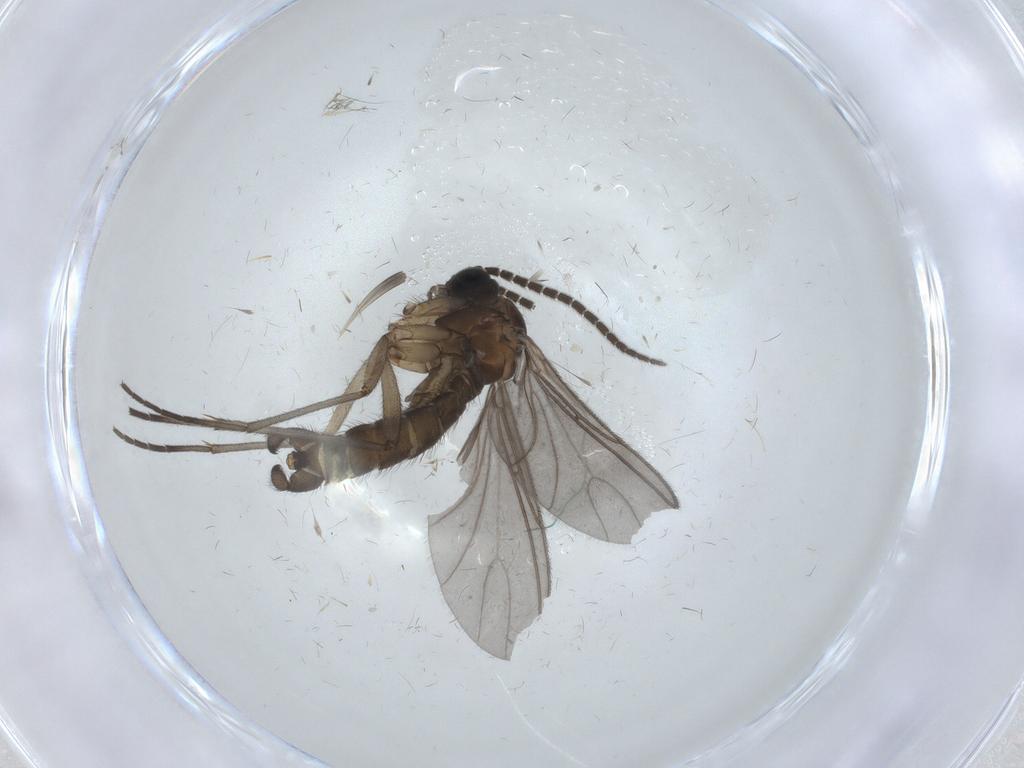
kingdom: Animalia
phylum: Arthropoda
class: Insecta
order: Diptera
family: Sciaridae
